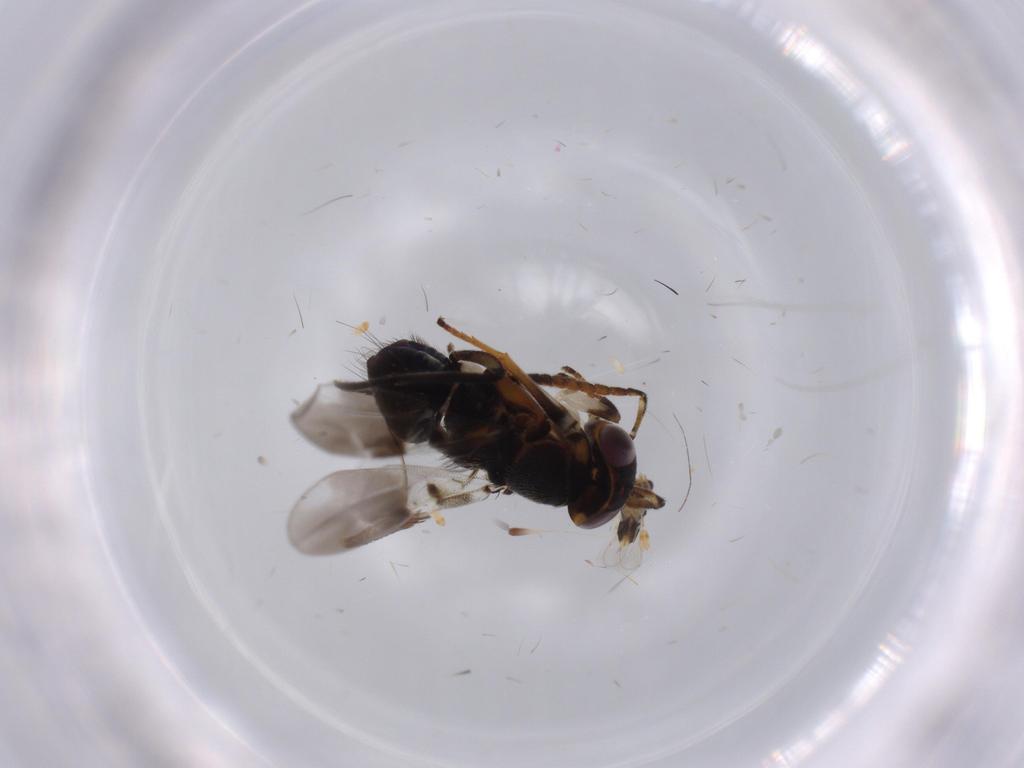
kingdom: Animalia
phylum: Arthropoda
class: Insecta
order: Hymenoptera
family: Aphelinidae
